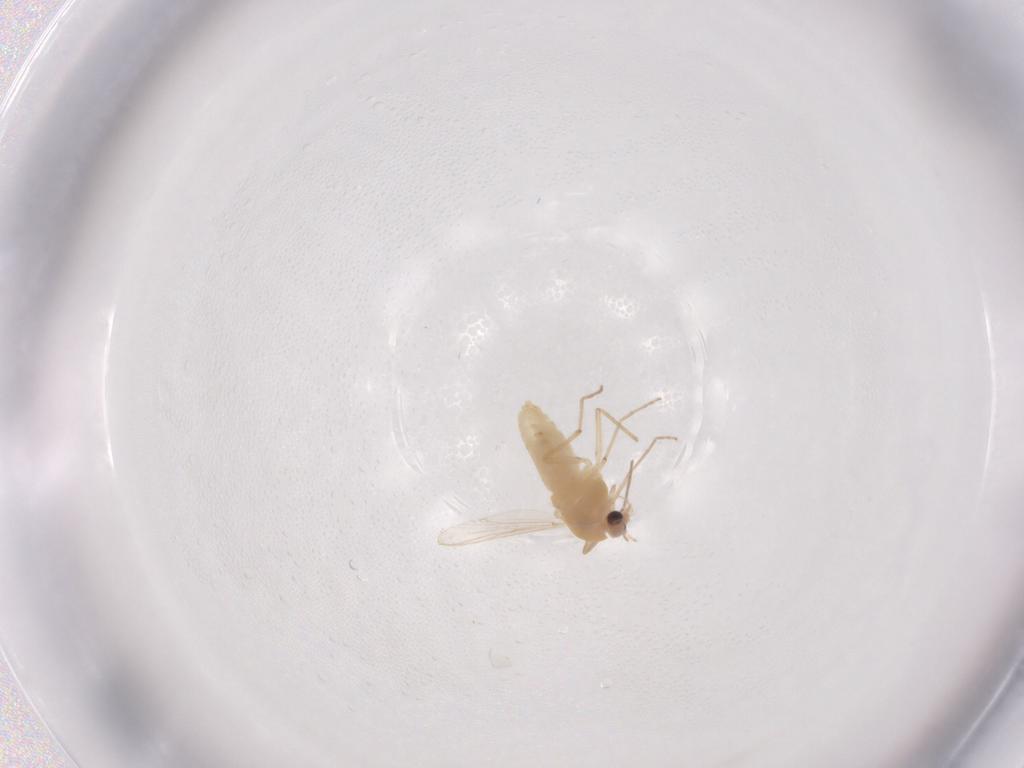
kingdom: Animalia
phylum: Arthropoda
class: Insecta
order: Diptera
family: Chironomidae
